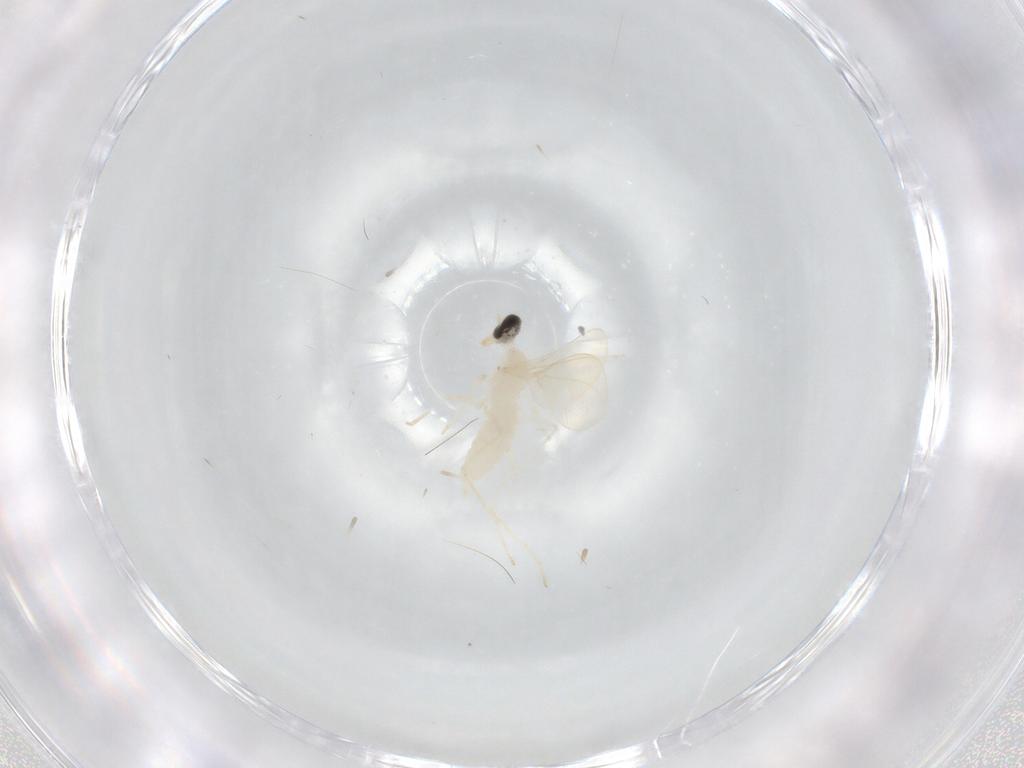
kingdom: Animalia
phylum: Arthropoda
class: Insecta
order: Diptera
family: Cecidomyiidae
